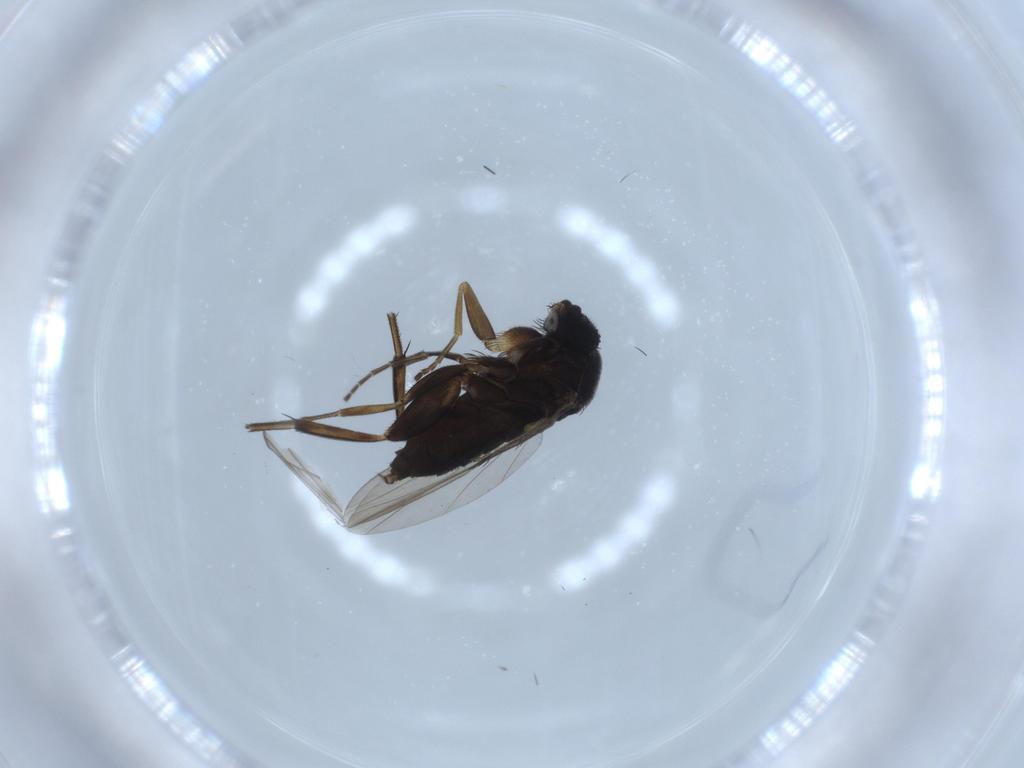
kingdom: Animalia
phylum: Arthropoda
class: Insecta
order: Diptera
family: Phoridae
